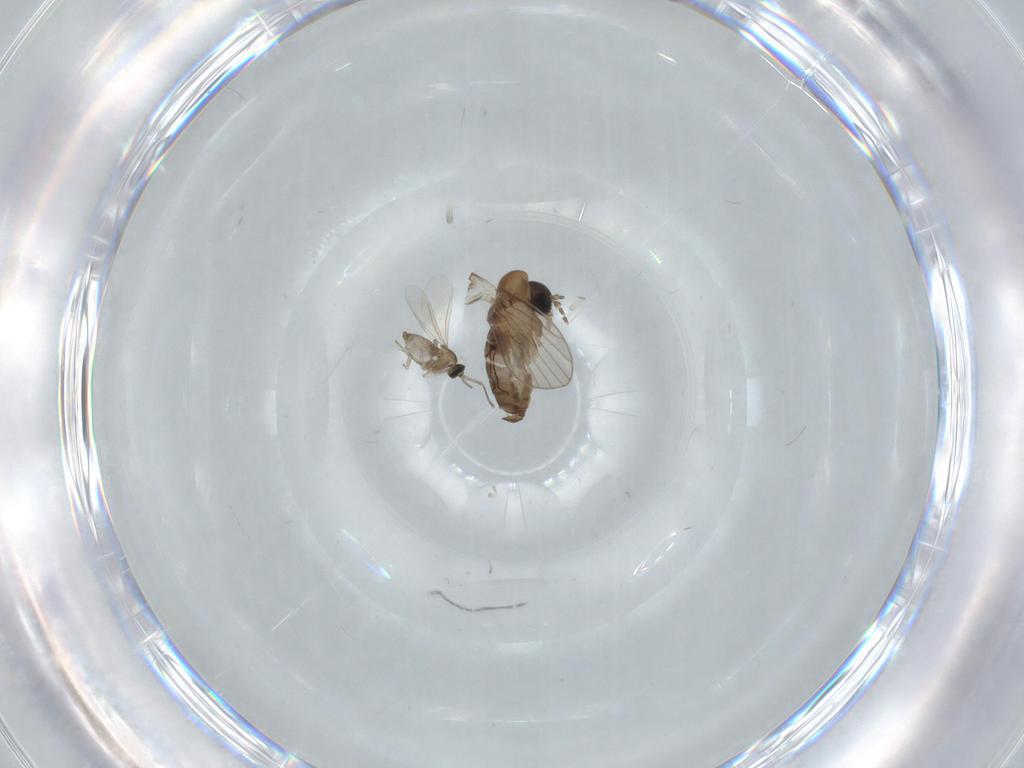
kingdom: Animalia
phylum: Arthropoda
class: Insecta
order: Diptera
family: Psychodidae
